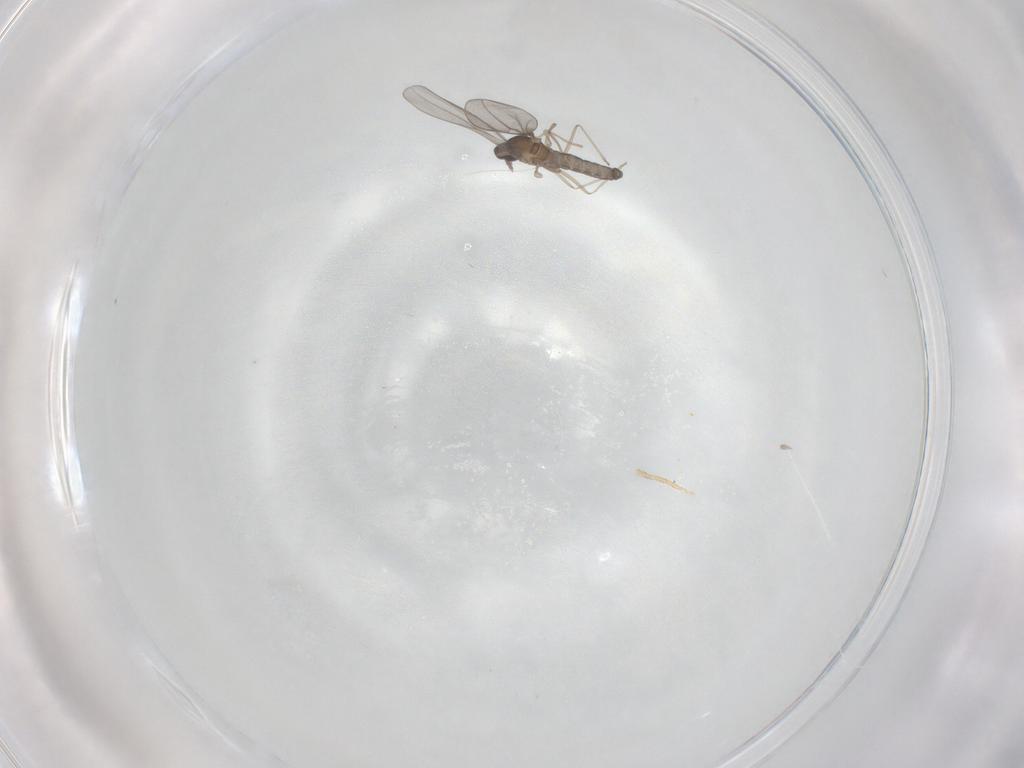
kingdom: Animalia
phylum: Arthropoda
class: Insecta
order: Diptera
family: Cecidomyiidae
